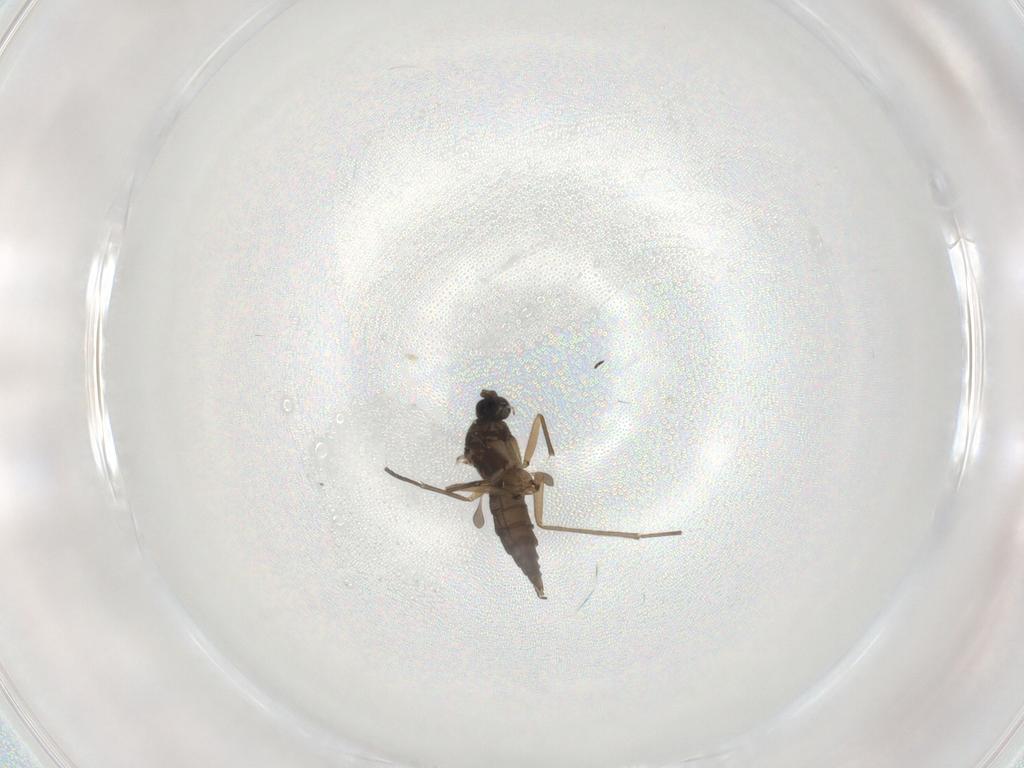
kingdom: Animalia
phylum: Arthropoda
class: Insecta
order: Diptera
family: Sciaridae
